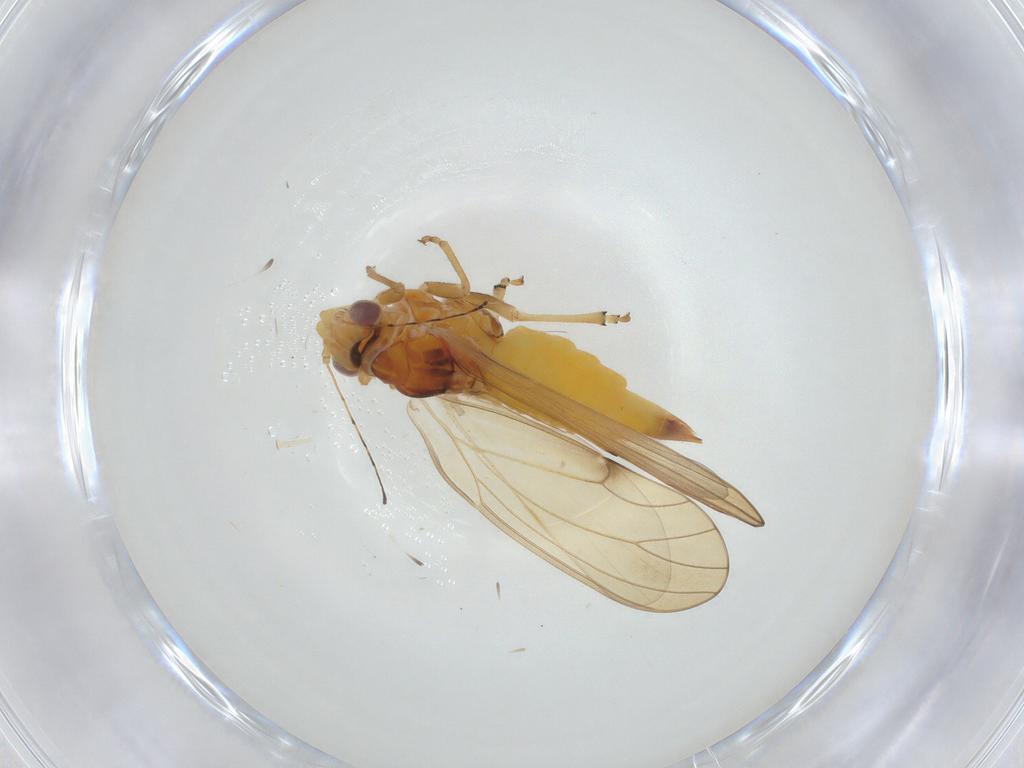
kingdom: Animalia
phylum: Arthropoda
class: Insecta
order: Hemiptera
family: Psylloidea_incertae_sedis
